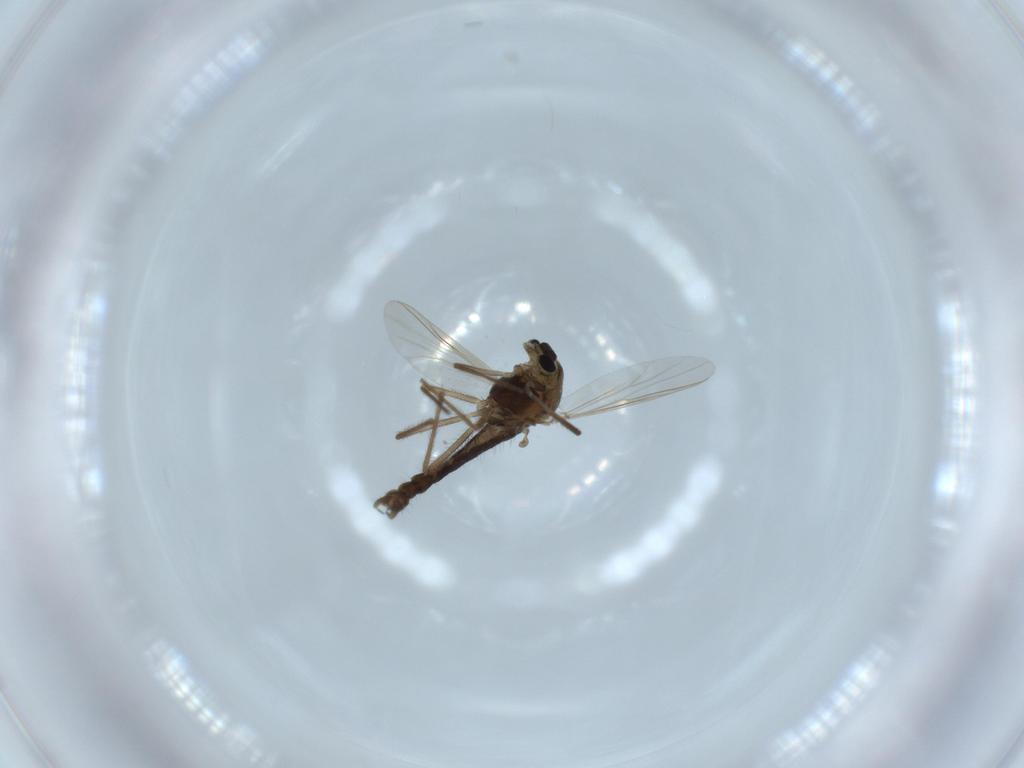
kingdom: Animalia
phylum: Arthropoda
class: Insecta
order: Diptera
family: Chironomidae
